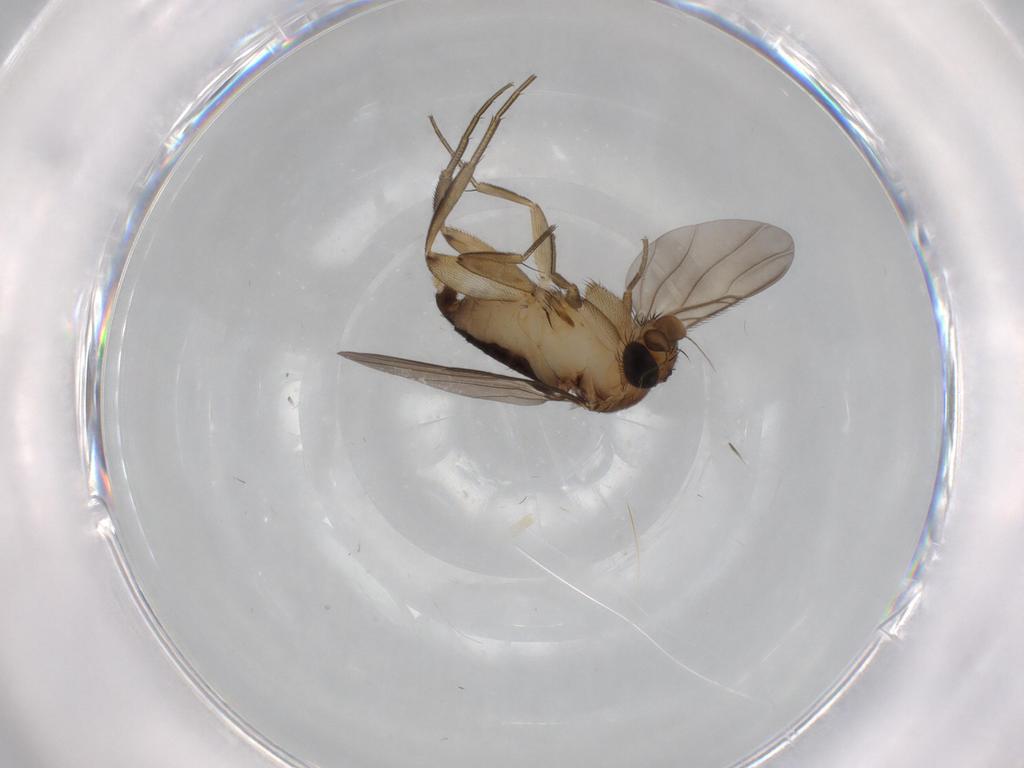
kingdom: Animalia
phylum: Arthropoda
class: Insecta
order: Diptera
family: Phoridae
